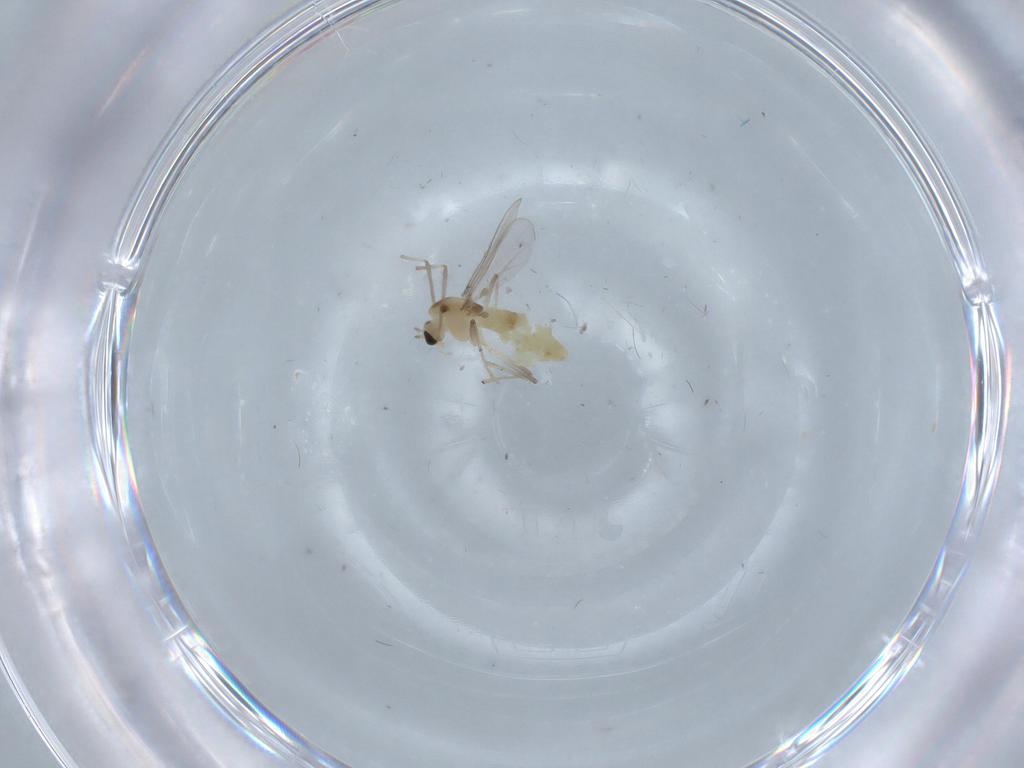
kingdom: Animalia
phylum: Arthropoda
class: Insecta
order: Diptera
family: Chironomidae
